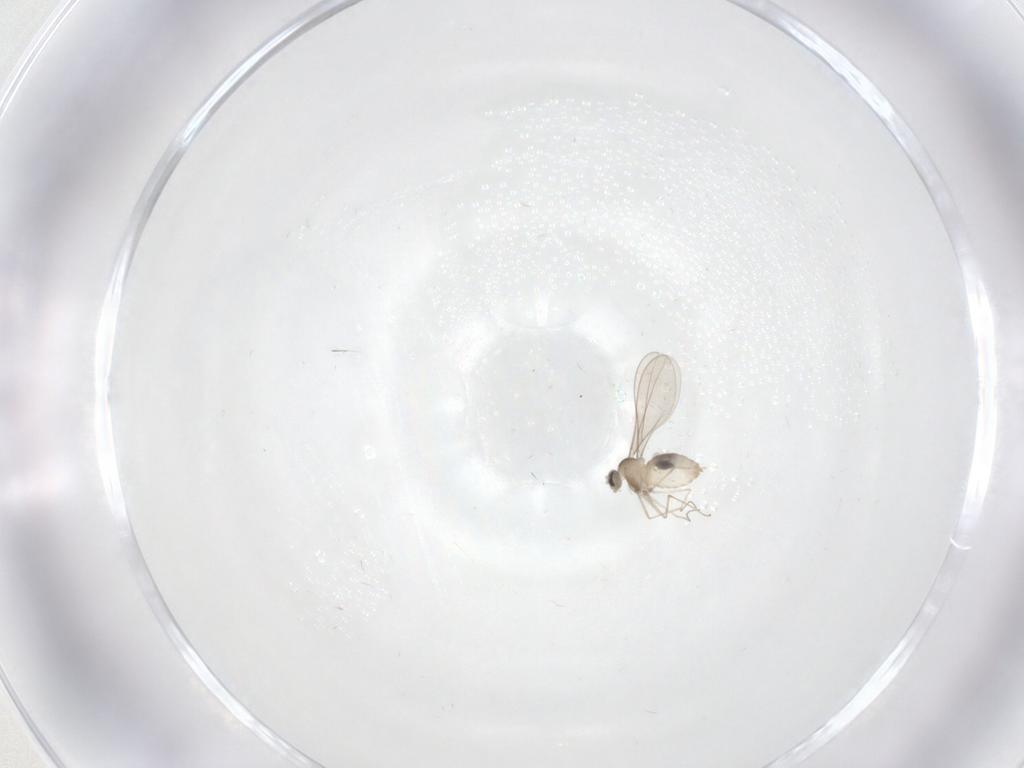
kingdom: Animalia
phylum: Arthropoda
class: Insecta
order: Diptera
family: Cecidomyiidae
